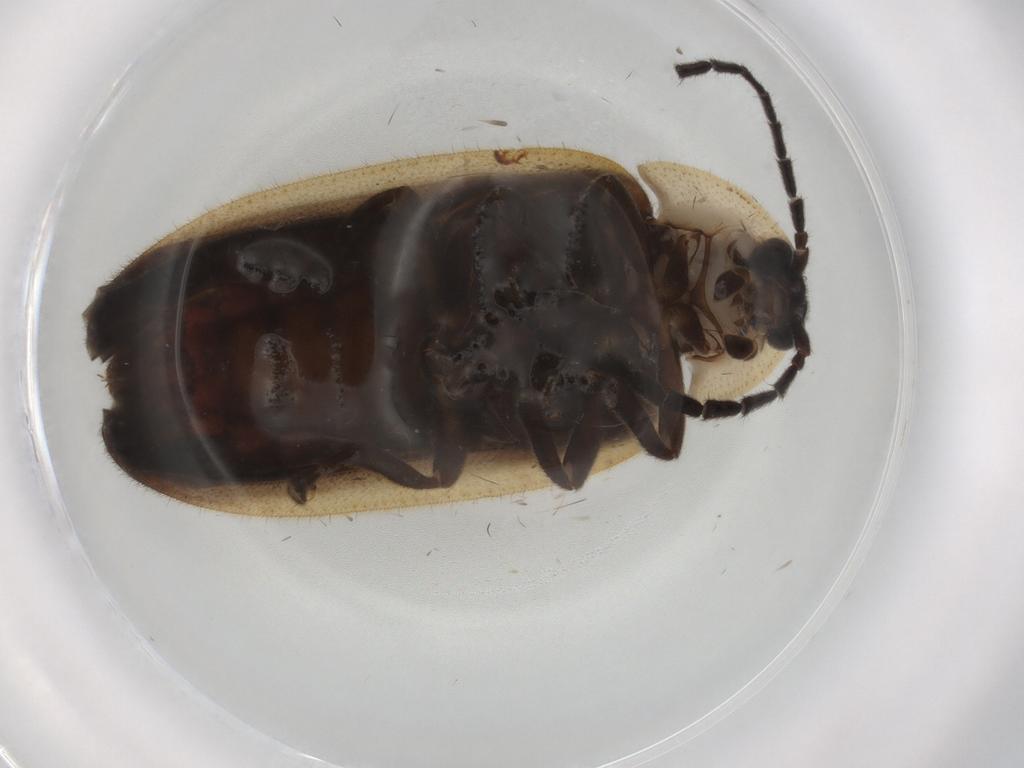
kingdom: Animalia
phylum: Arthropoda
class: Insecta
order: Coleoptera
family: Lampyridae
